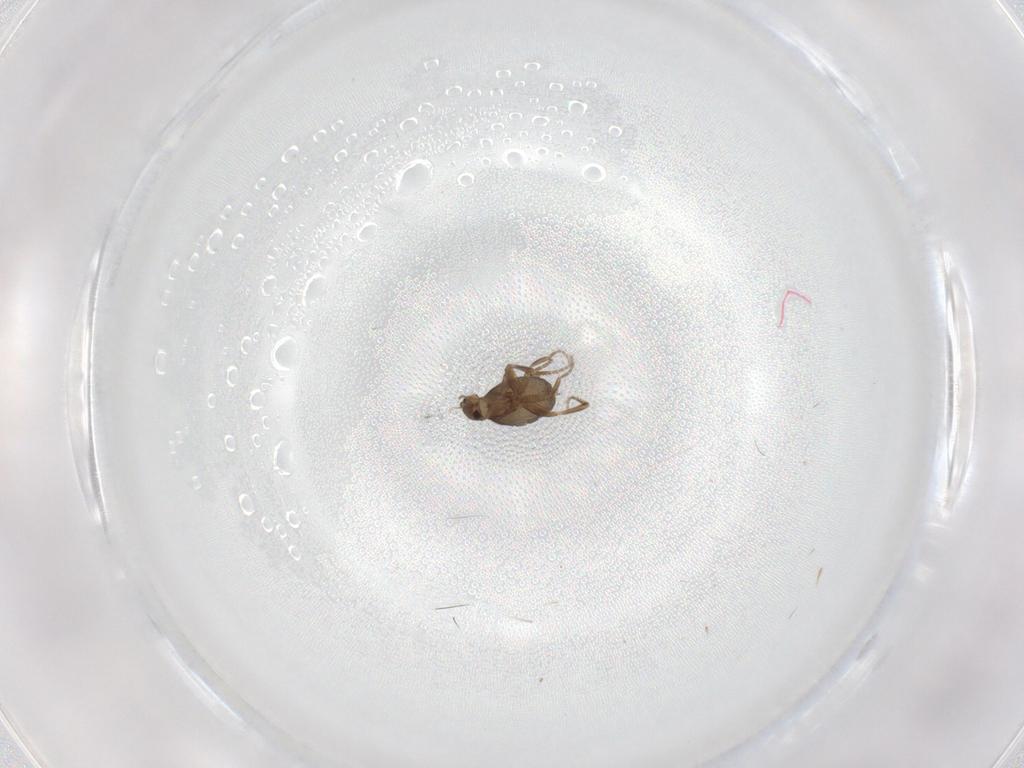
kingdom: Animalia
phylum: Arthropoda
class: Insecta
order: Diptera
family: Phoridae
